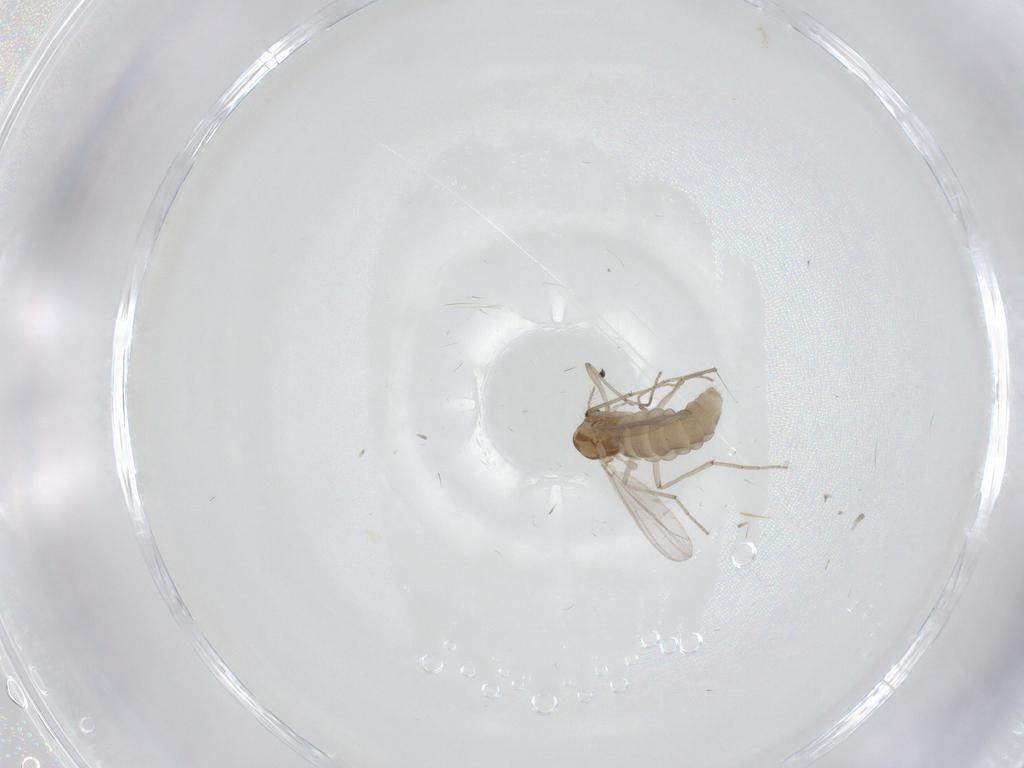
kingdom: Animalia
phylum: Arthropoda
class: Insecta
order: Diptera
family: Chironomidae
